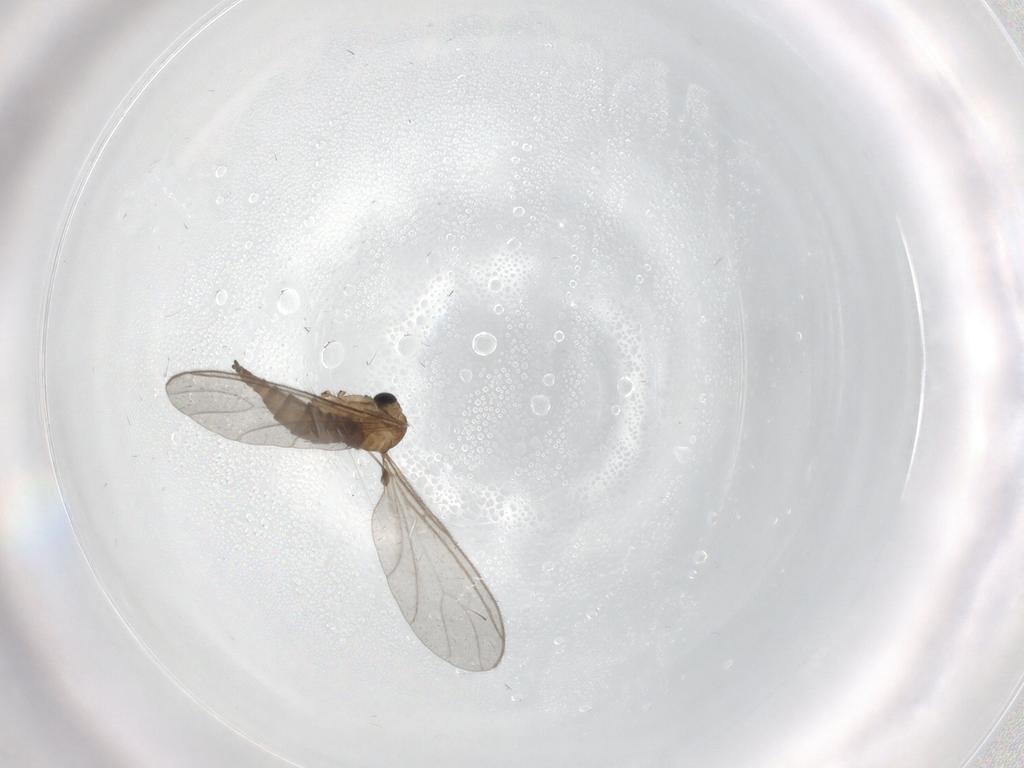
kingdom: Animalia
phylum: Arthropoda
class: Insecta
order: Diptera
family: Sciaridae
